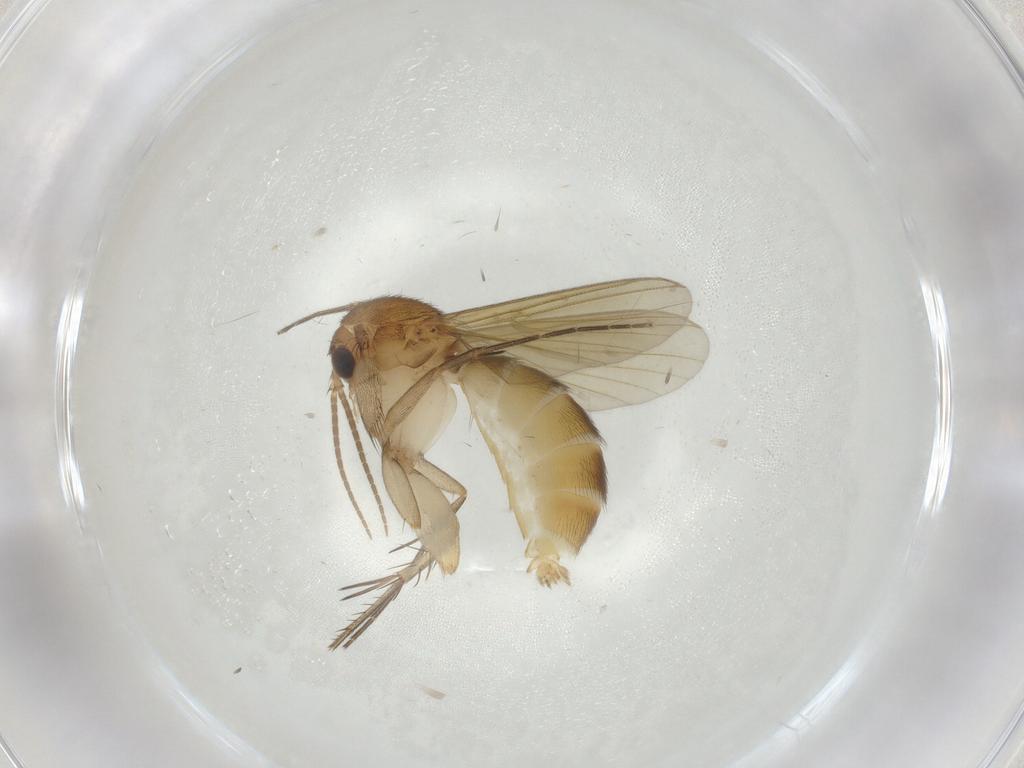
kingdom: Animalia
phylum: Arthropoda
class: Insecta
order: Diptera
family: Mycetophilidae
